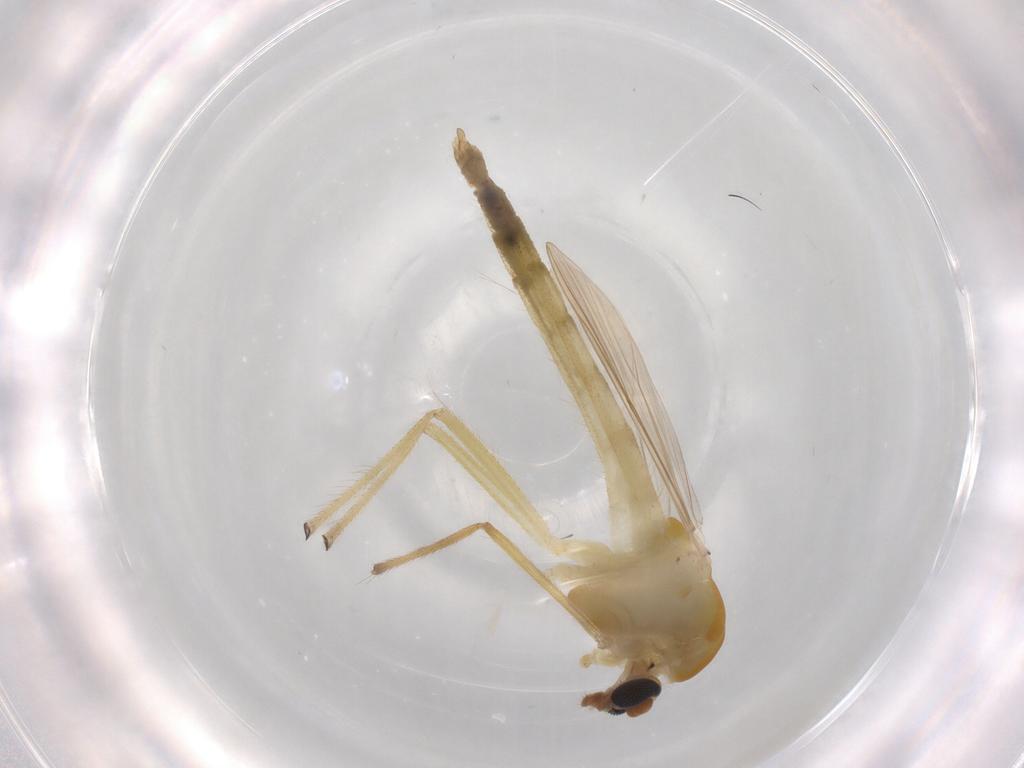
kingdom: Animalia
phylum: Arthropoda
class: Insecta
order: Diptera
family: Chironomidae
